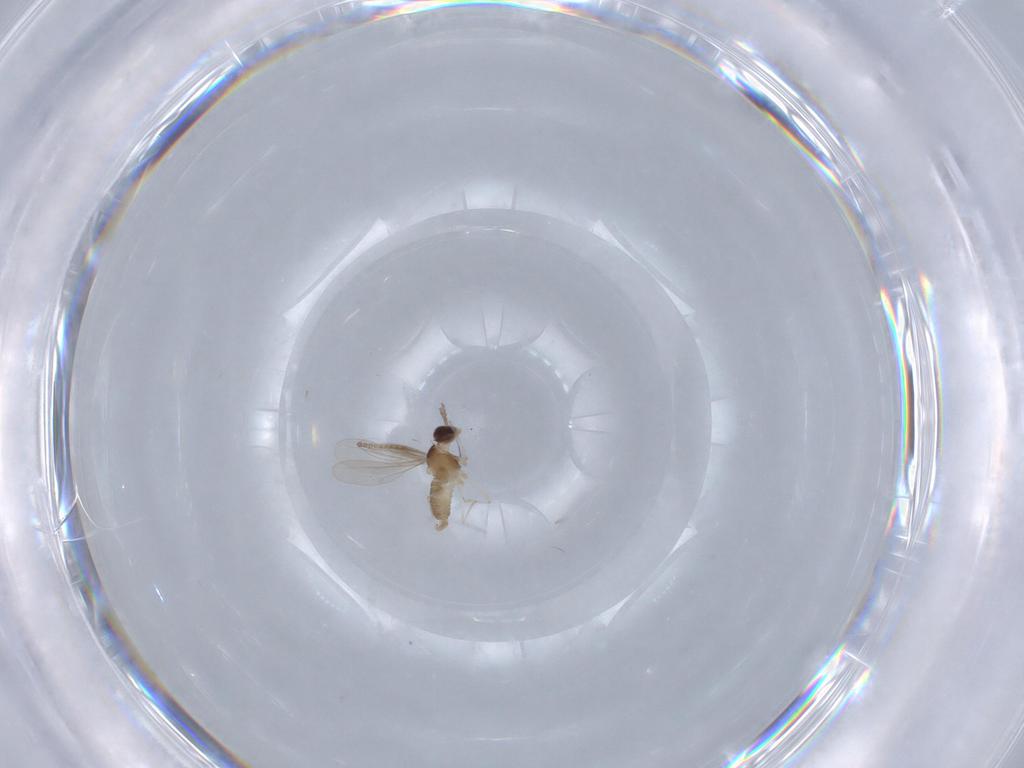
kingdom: Animalia
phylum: Arthropoda
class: Insecta
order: Diptera
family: Cecidomyiidae
